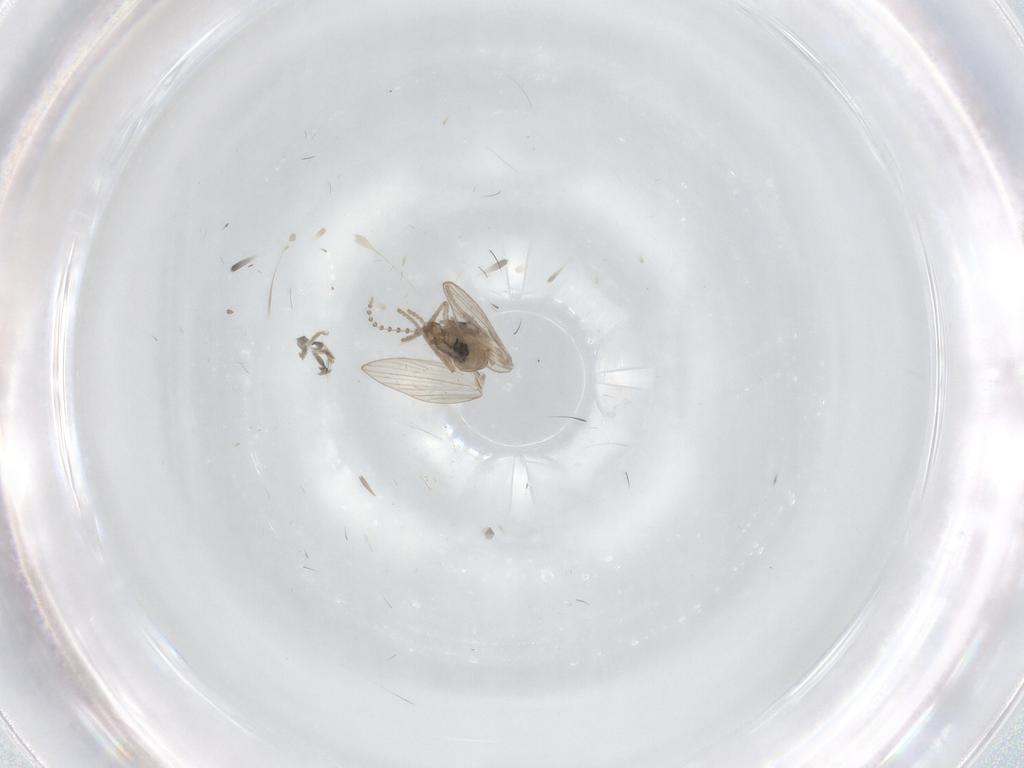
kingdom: Animalia
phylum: Arthropoda
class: Insecta
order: Diptera
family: Psychodidae
